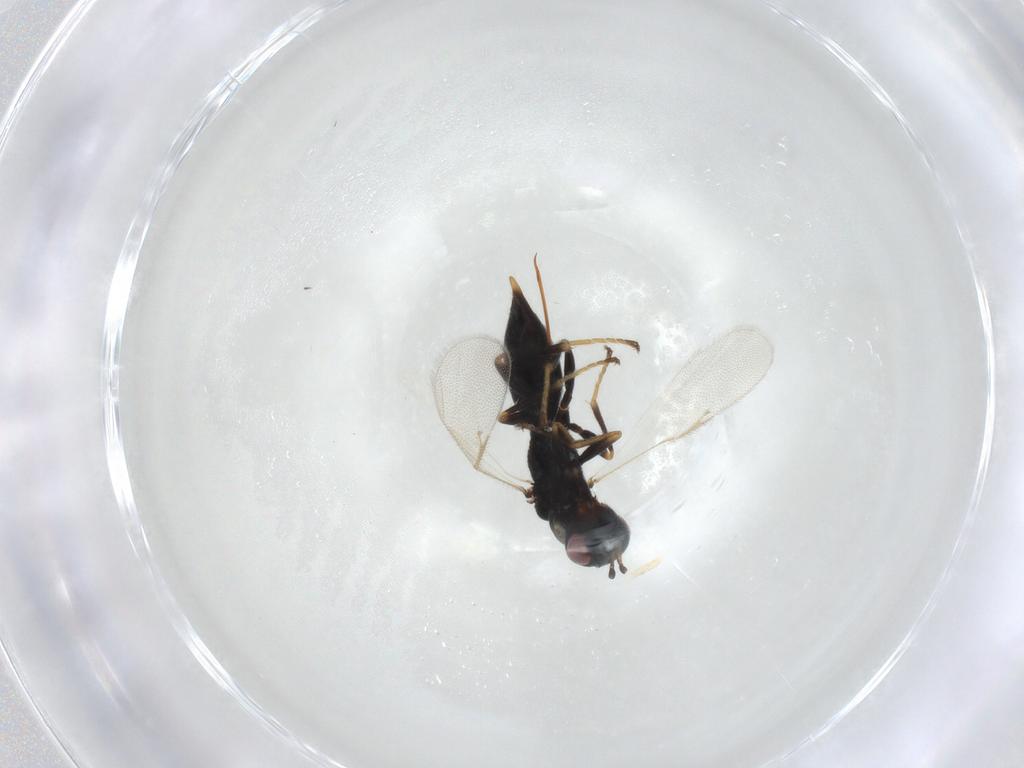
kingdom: Animalia
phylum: Arthropoda
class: Insecta
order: Hymenoptera
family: Eurytomidae
